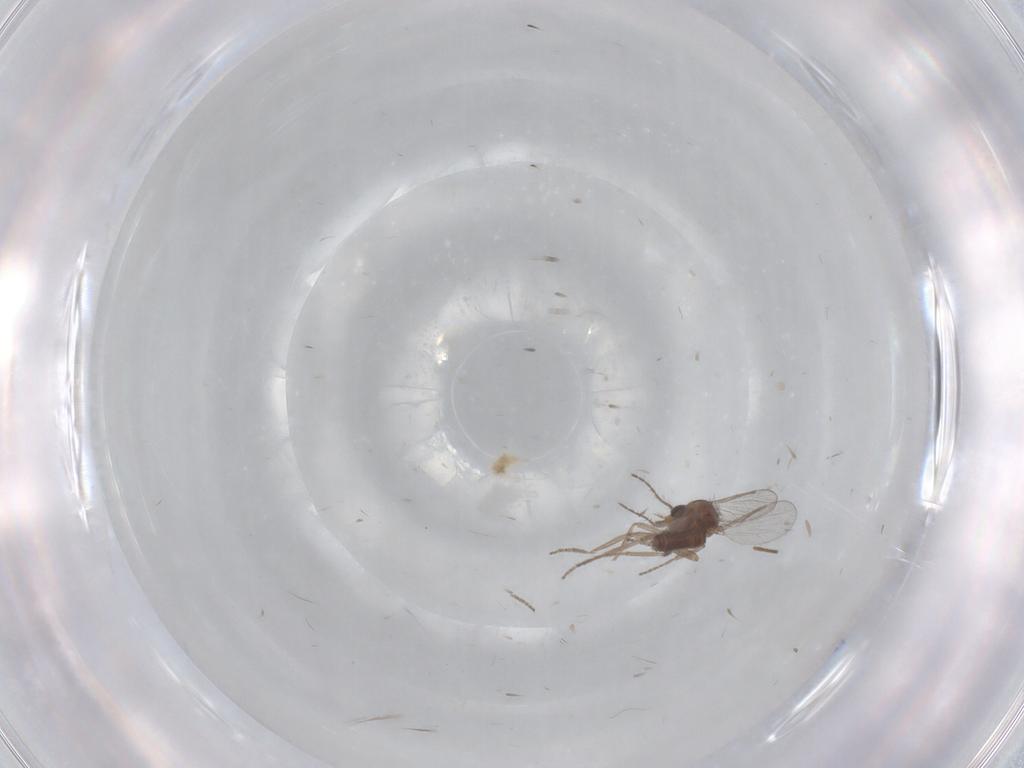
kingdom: Animalia
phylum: Arthropoda
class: Insecta
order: Diptera
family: Ceratopogonidae
